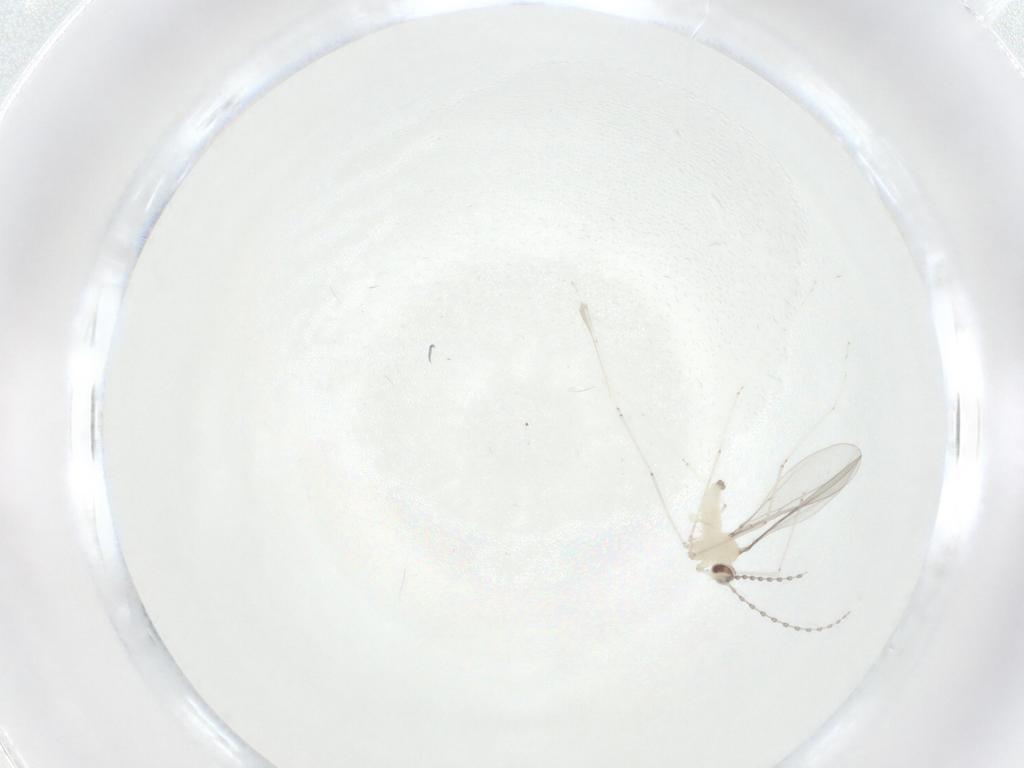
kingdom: Animalia
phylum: Arthropoda
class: Insecta
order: Diptera
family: Cecidomyiidae
